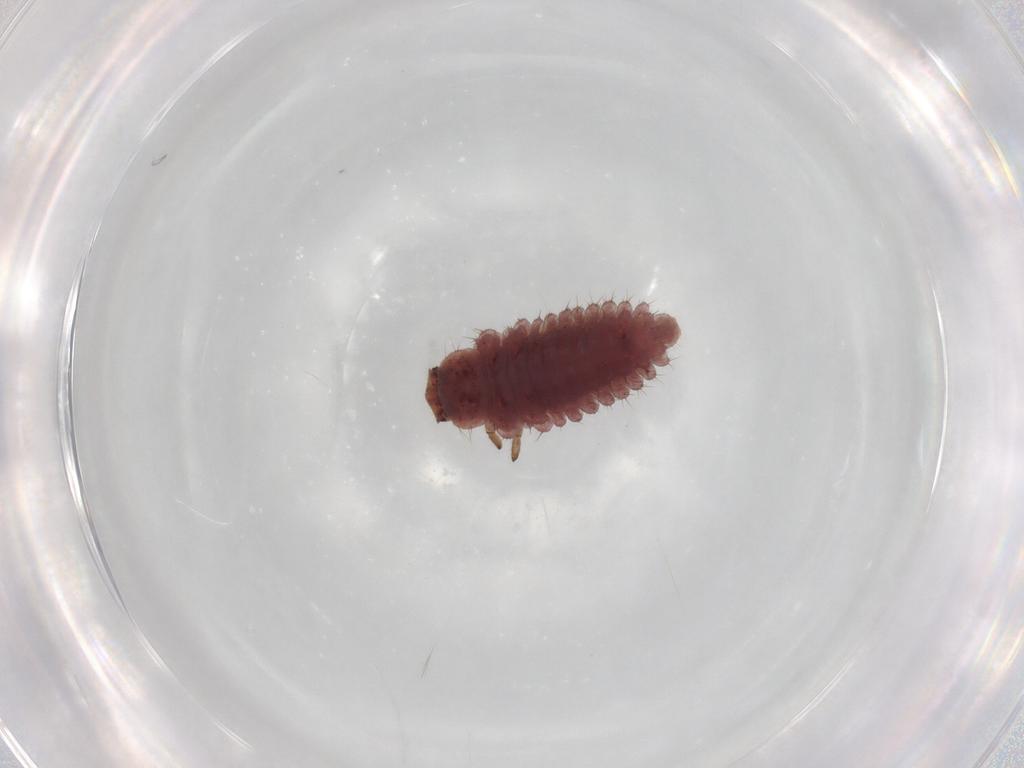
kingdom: Animalia
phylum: Arthropoda
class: Insecta
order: Coleoptera
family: Coccinellidae
